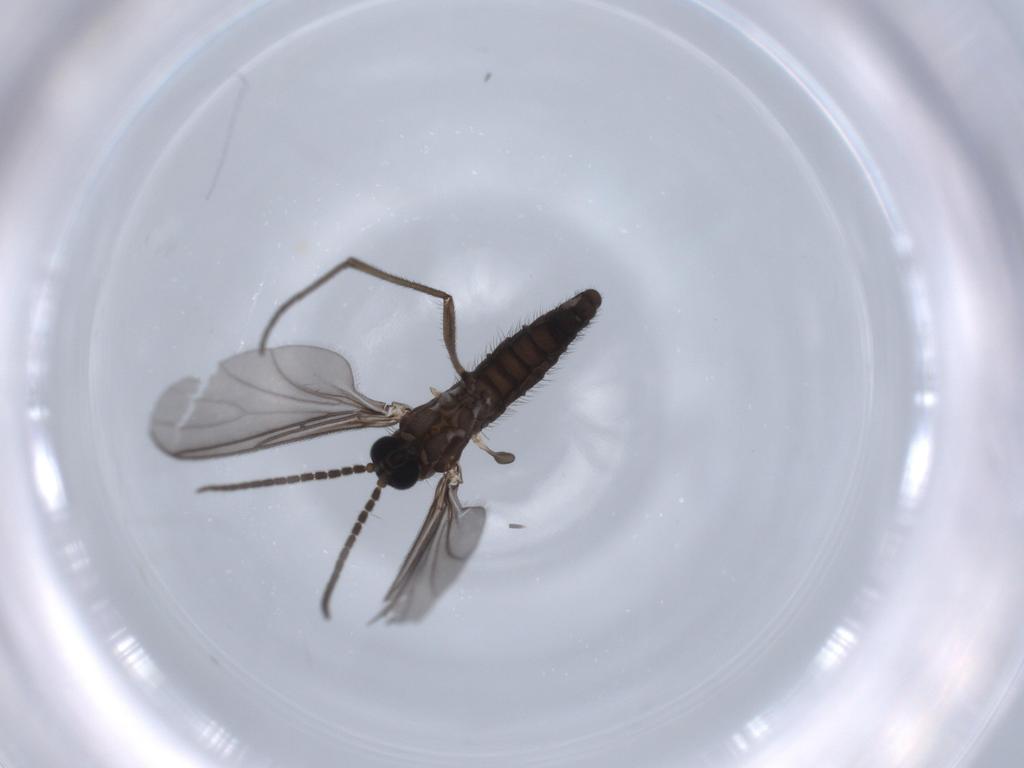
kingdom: Animalia
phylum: Arthropoda
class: Insecta
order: Diptera
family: Sciaridae
